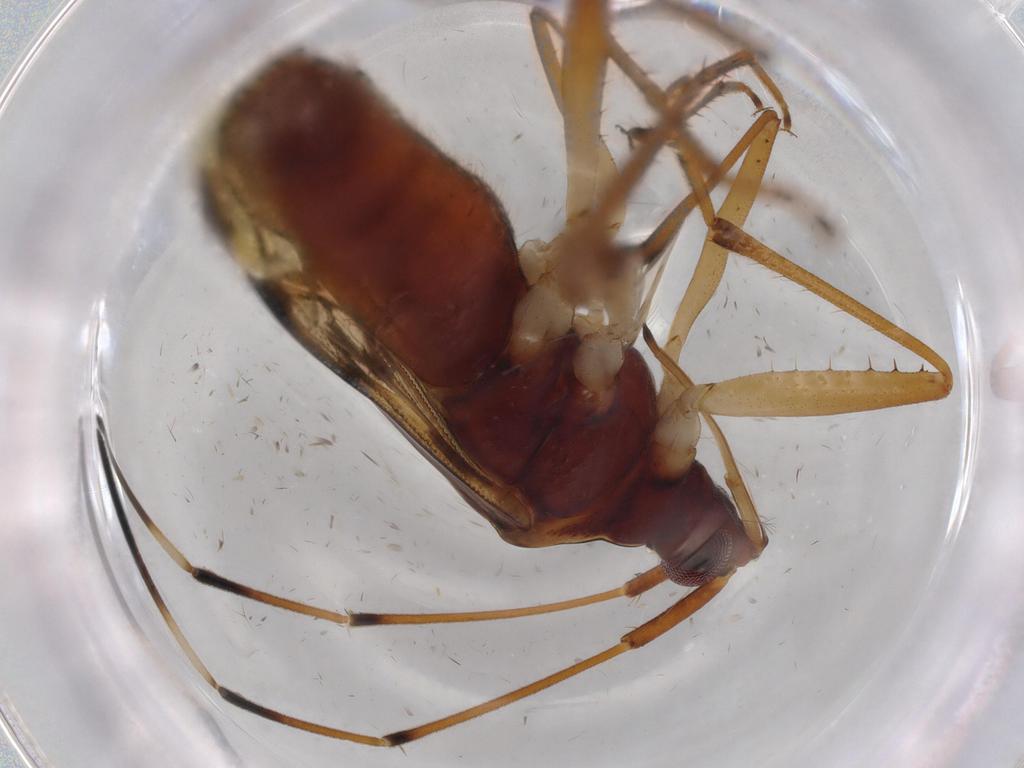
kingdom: Animalia
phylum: Arthropoda
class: Insecta
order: Hemiptera
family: Rhyparochromidae
